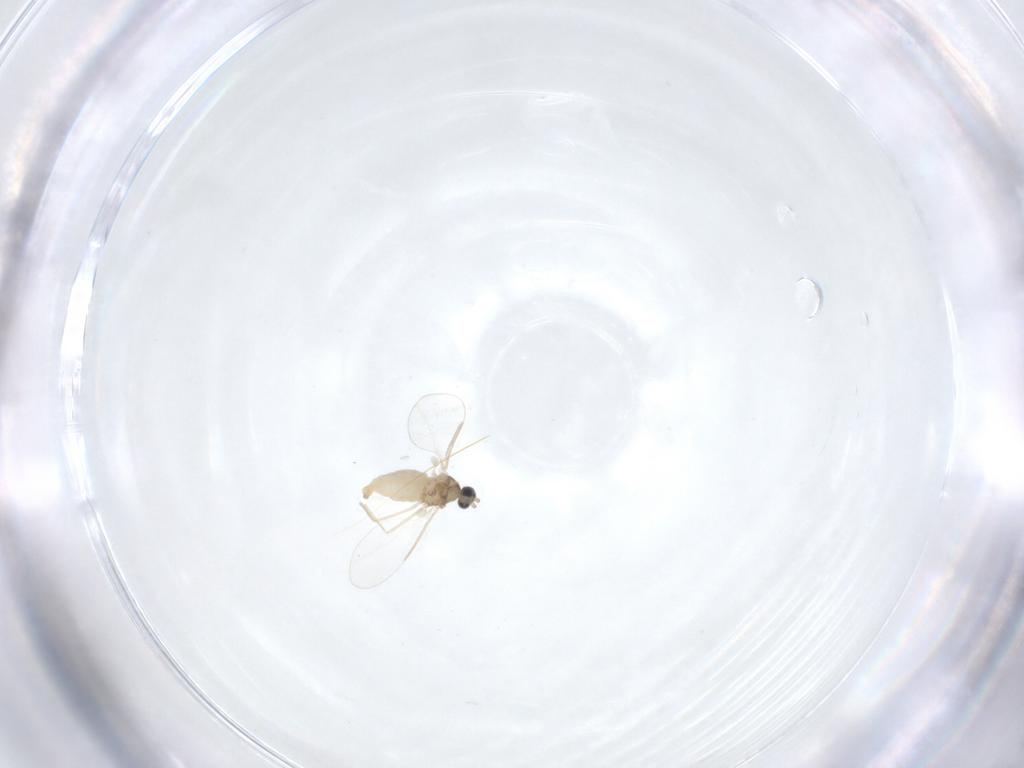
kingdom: Animalia
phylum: Arthropoda
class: Insecta
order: Diptera
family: Cecidomyiidae
